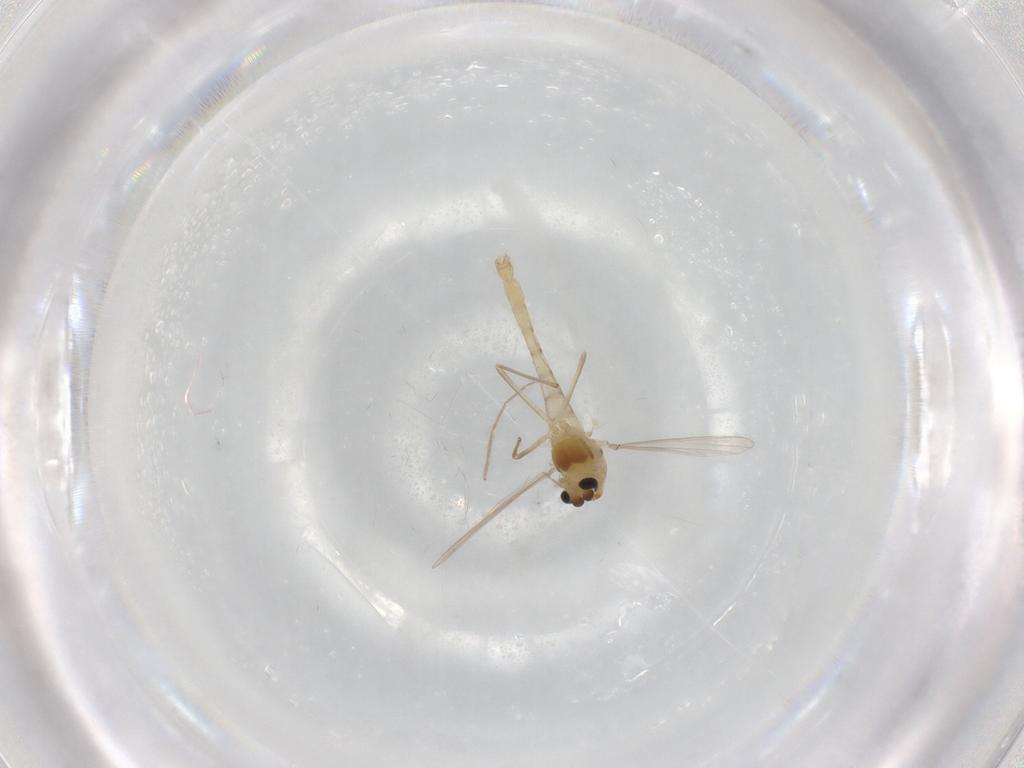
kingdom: Animalia
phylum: Arthropoda
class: Insecta
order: Diptera
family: Chironomidae
